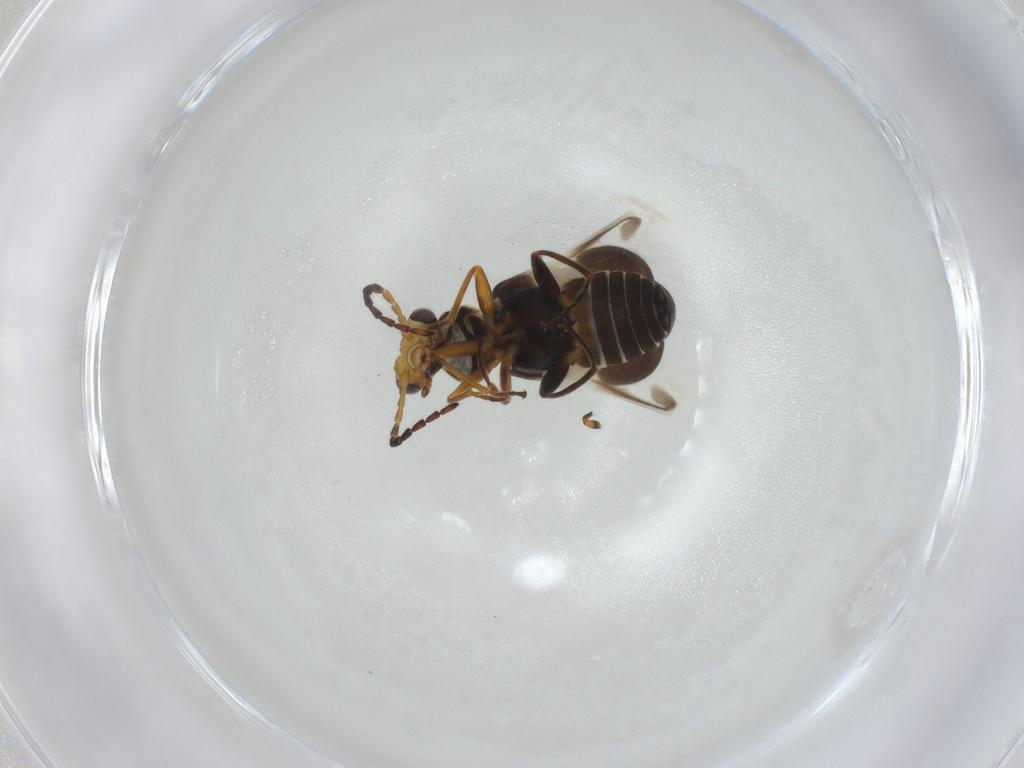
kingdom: Animalia
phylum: Arthropoda
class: Insecta
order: Coleoptera
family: Melyridae
